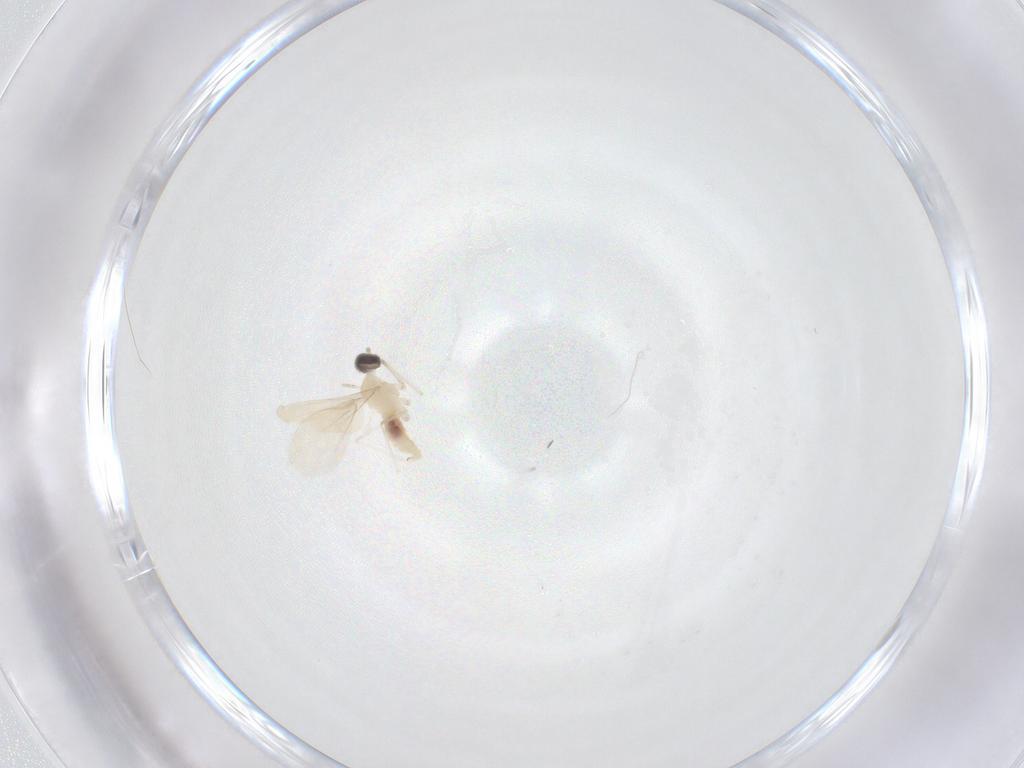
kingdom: Animalia
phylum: Arthropoda
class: Insecta
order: Diptera
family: Cecidomyiidae
